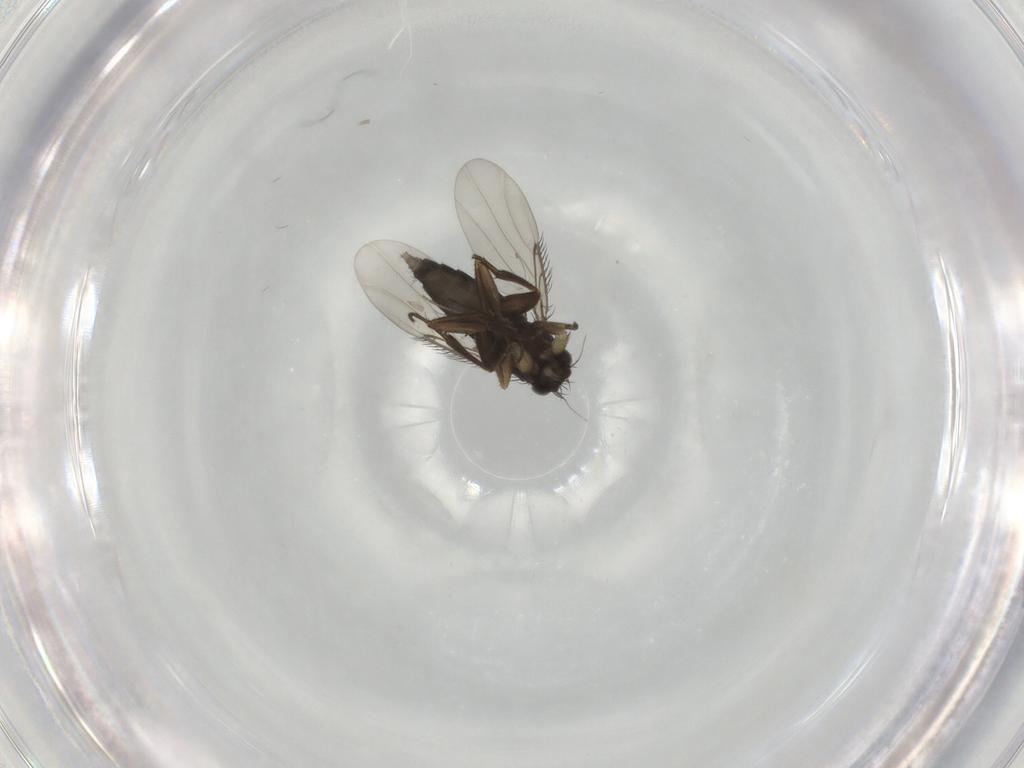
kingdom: Animalia
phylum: Arthropoda
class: Insecta
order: Diptera
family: Phoridae
